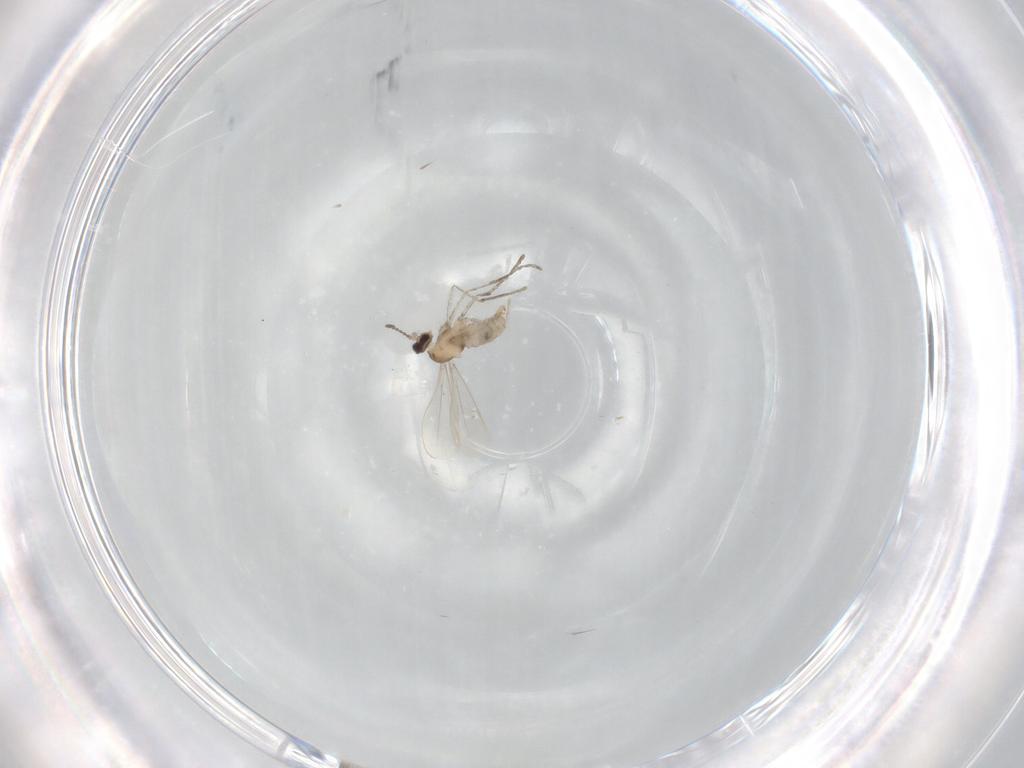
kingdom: Animalia
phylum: Arthropoda
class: Insecta
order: Diptera
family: Cecidomyiidae
